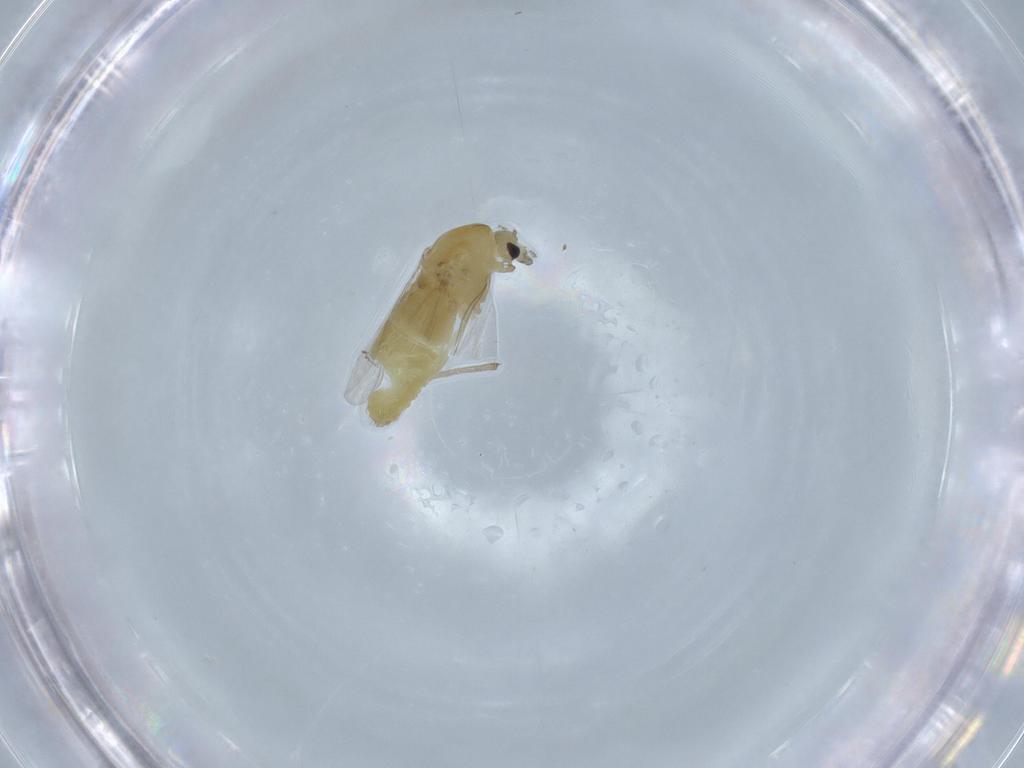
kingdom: Animalia
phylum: Arthropoda
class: Insecta
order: Diptera
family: Chironomidae
